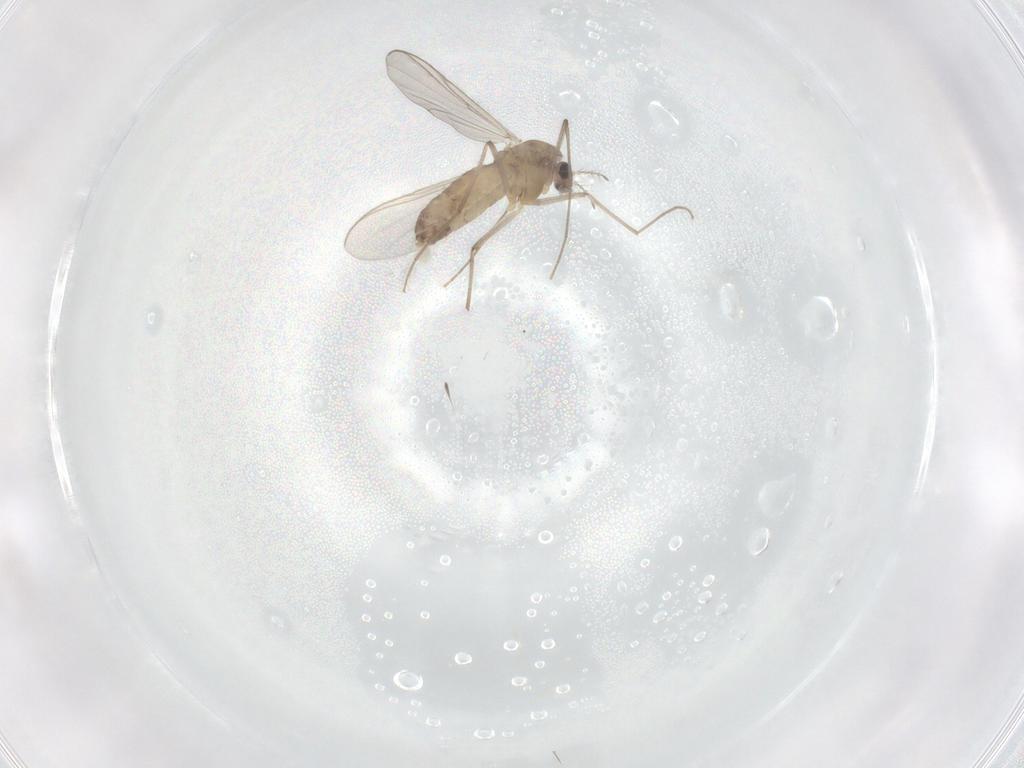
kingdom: Animalia
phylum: Arthropoda
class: Insecta
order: Diptera
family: Chironomidae
